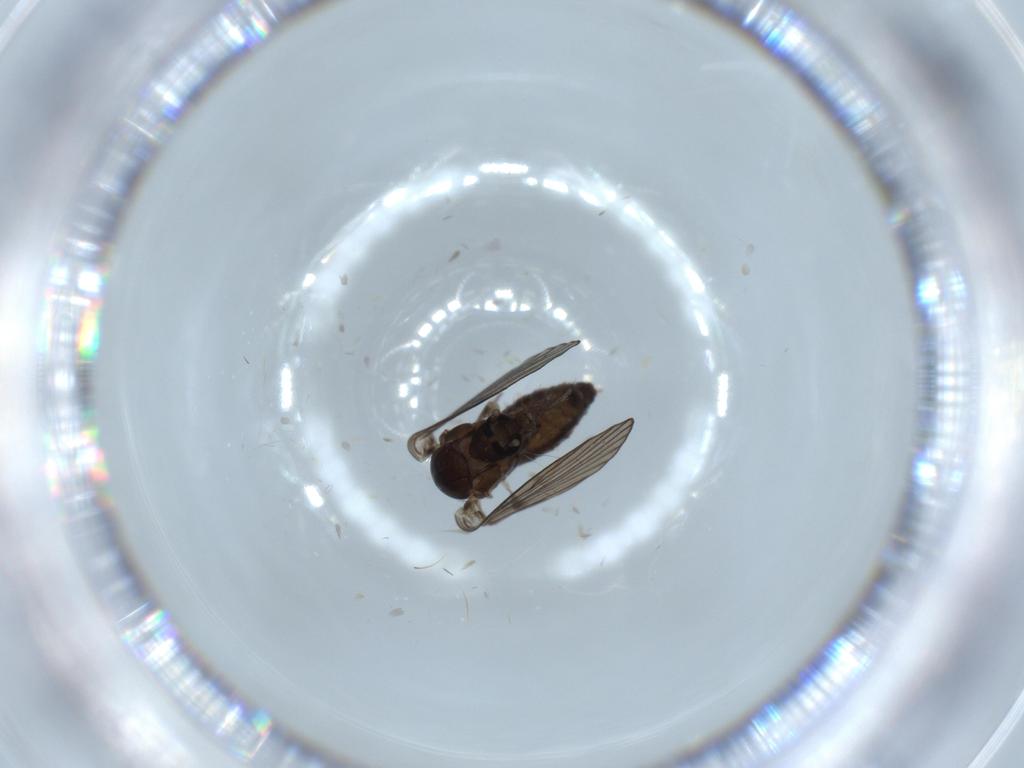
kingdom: Animalia
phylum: Arthropoda
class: Insecta
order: Diptera
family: Psychodidae
